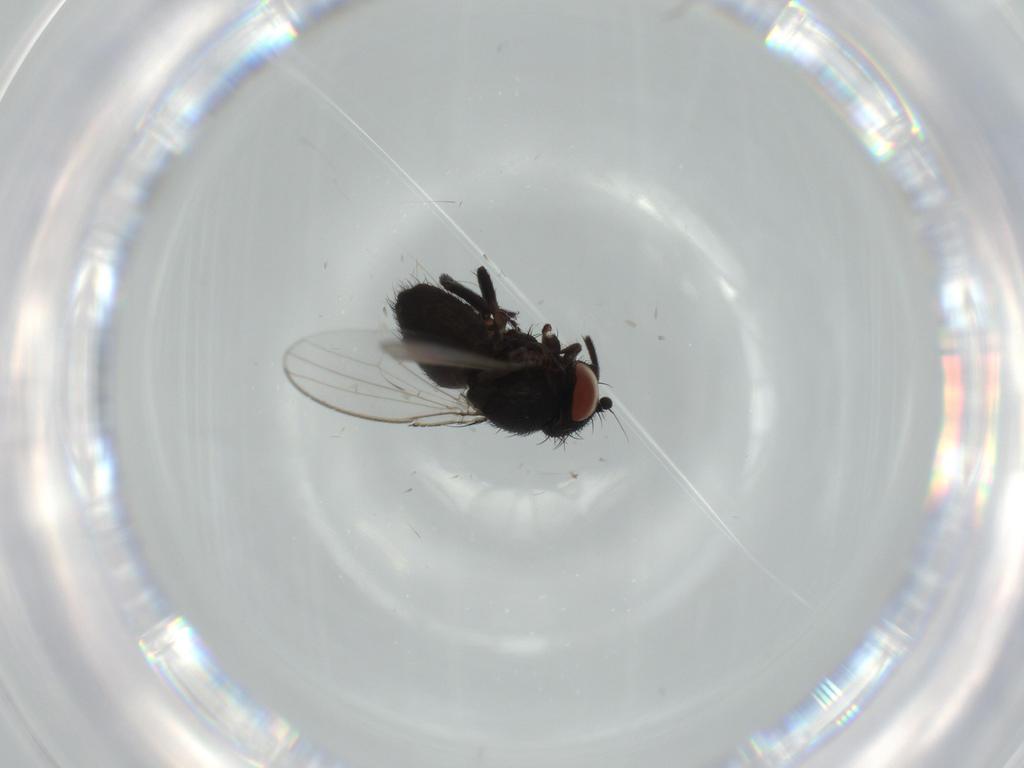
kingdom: Animalia
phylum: Arthropoda
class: Insecta
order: Diptera
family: Milichiidae
